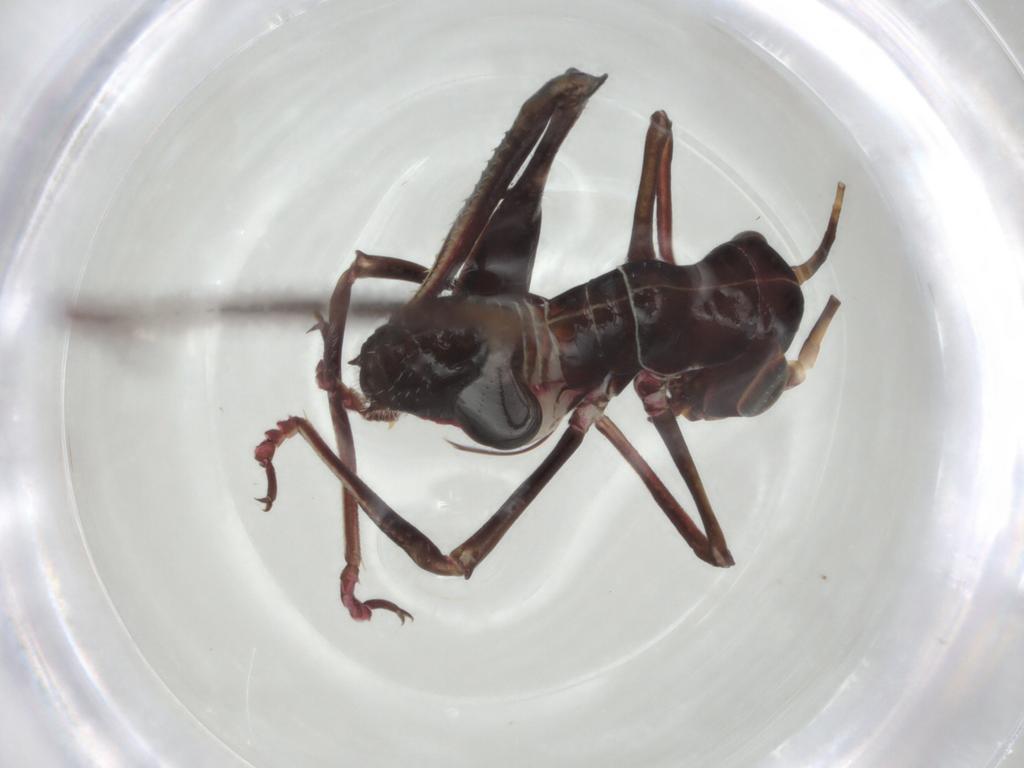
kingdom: Animalia
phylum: Arthropoda
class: Insecta
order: Orthoptera
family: Tettigoniidae
